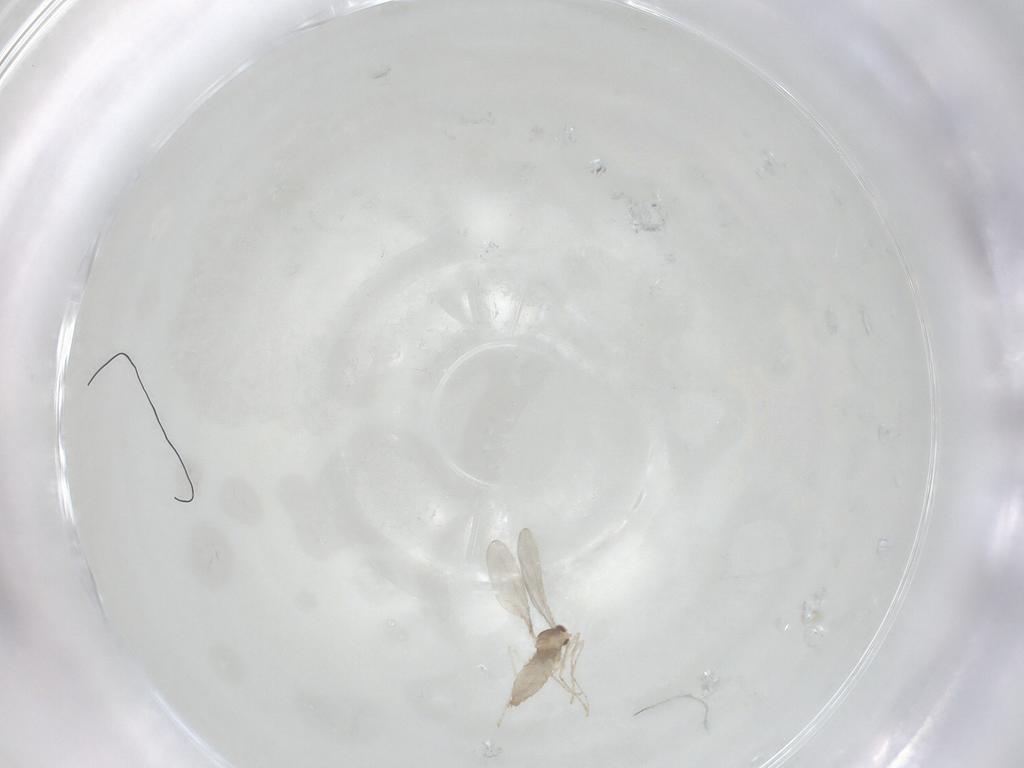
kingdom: Animalia
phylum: Arthropoda
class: Insecta
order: Diptera
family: Cecidomyiidae
